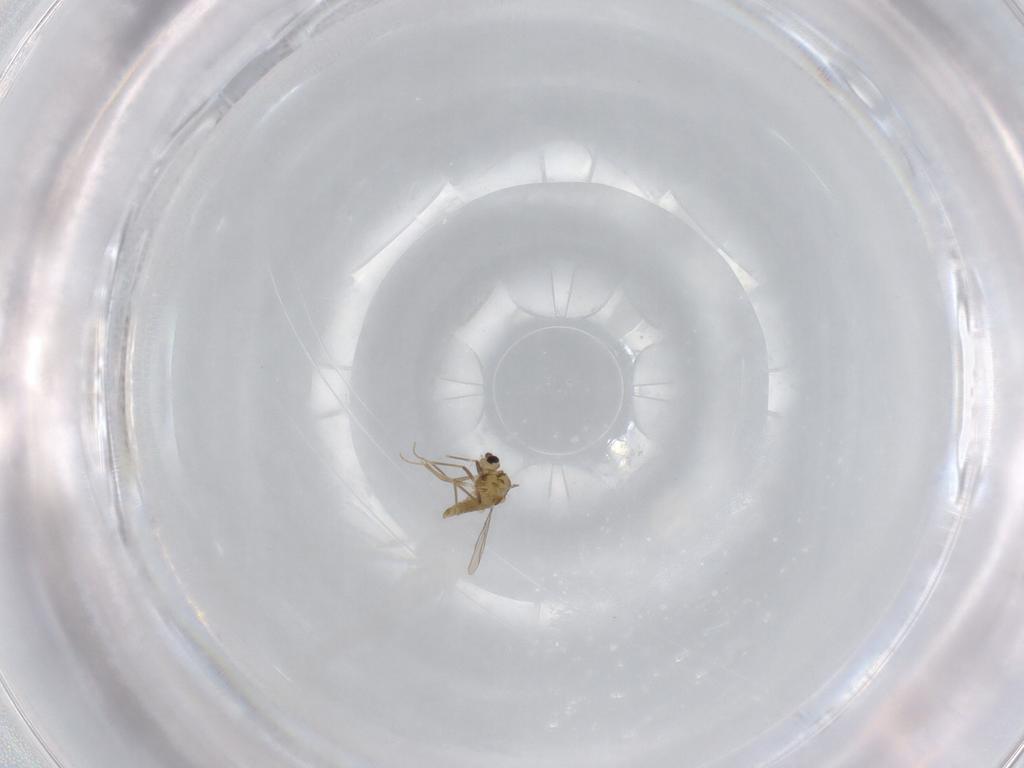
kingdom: Animalia
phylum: Arthropoda
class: Insecta
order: Diptera
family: Chironomidae
